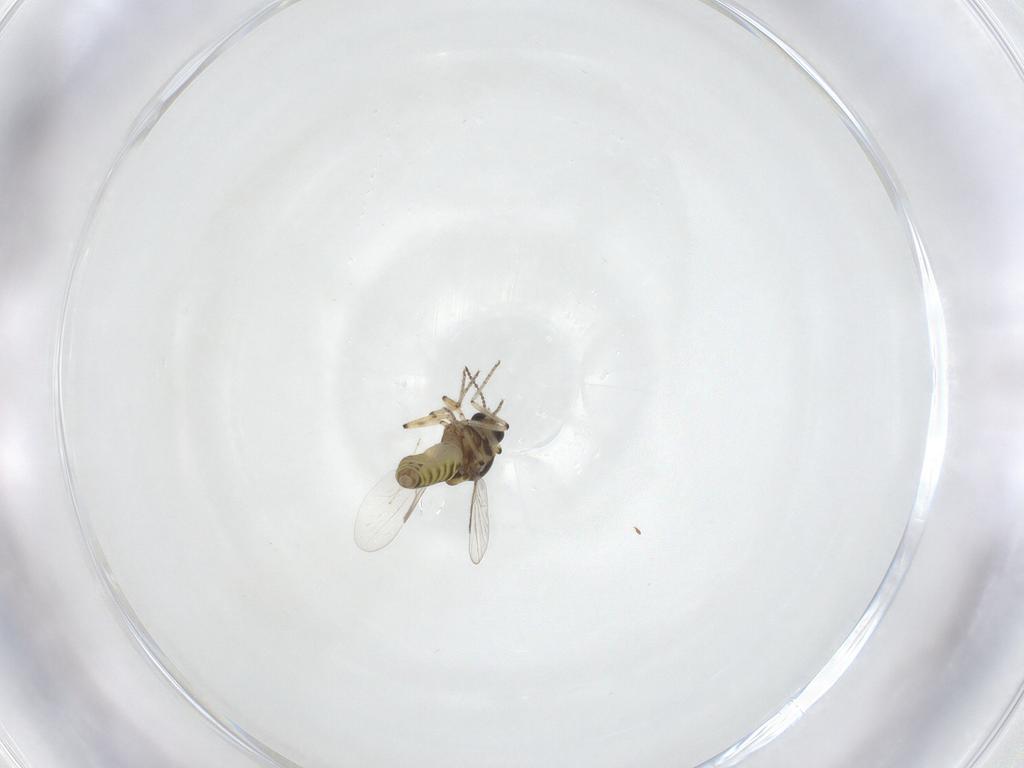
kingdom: Animalia
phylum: Arthropoda
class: Insecta
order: Diptera
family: Ceratopogonidae
